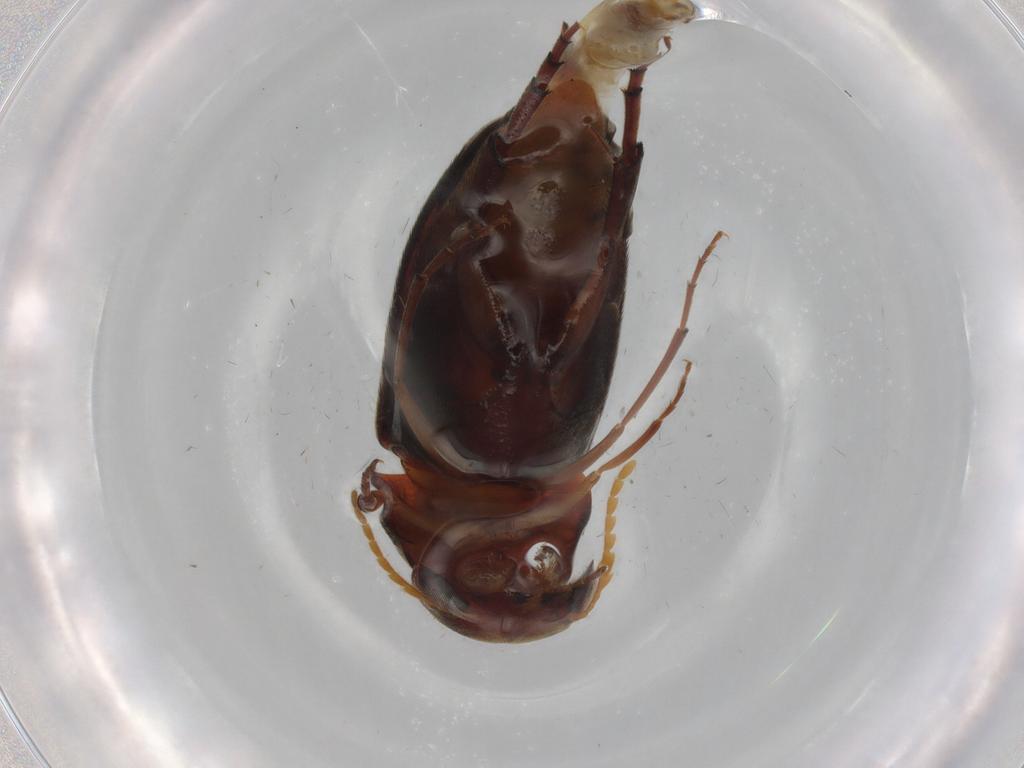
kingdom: Animalia
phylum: Arthropoda
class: Insecta
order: Coleoptera
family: Mordellidae
